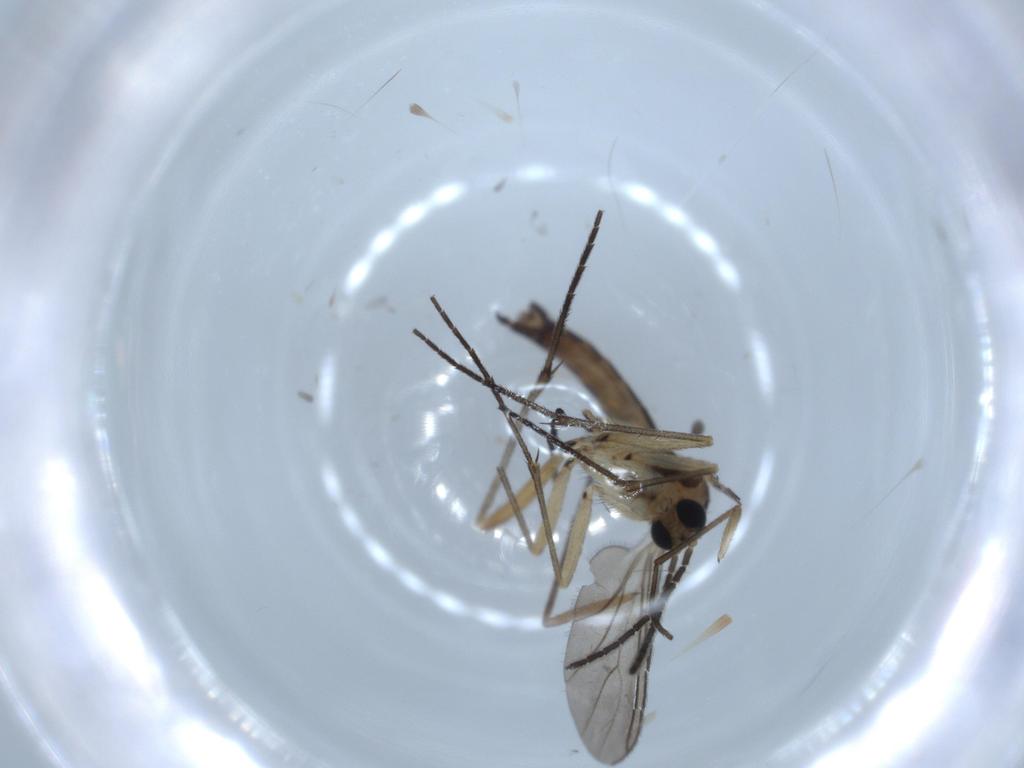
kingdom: Animalia
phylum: Arthropoda
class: Insecta
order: Diptera
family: Sciaridae
